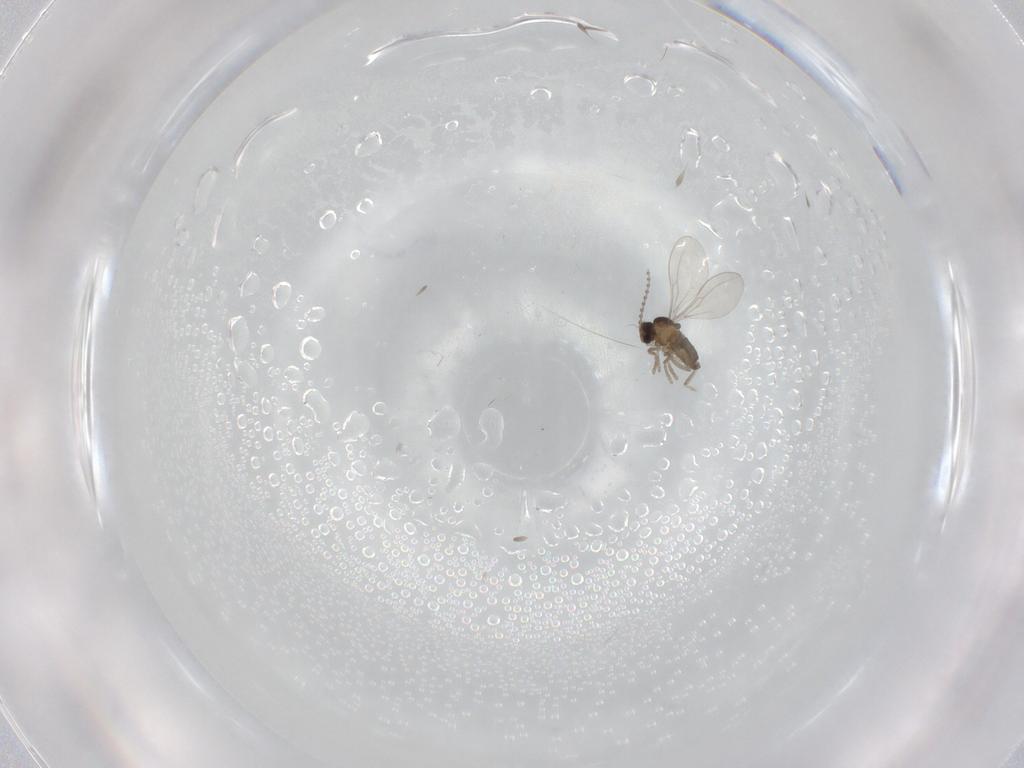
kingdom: Animalia
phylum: Arthropoda
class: Insecta
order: Diptera
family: Cecidomyiidae
